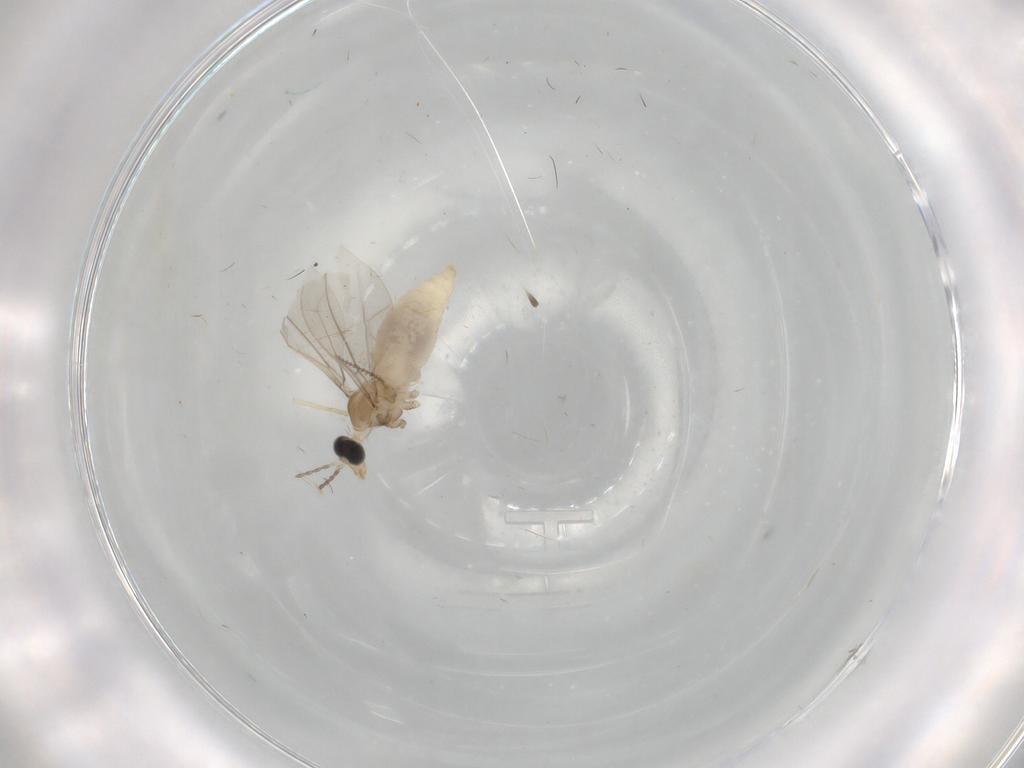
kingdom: Animalia
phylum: Arthropoda
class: Insecta
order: Diptera
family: Cecidomyiidae
